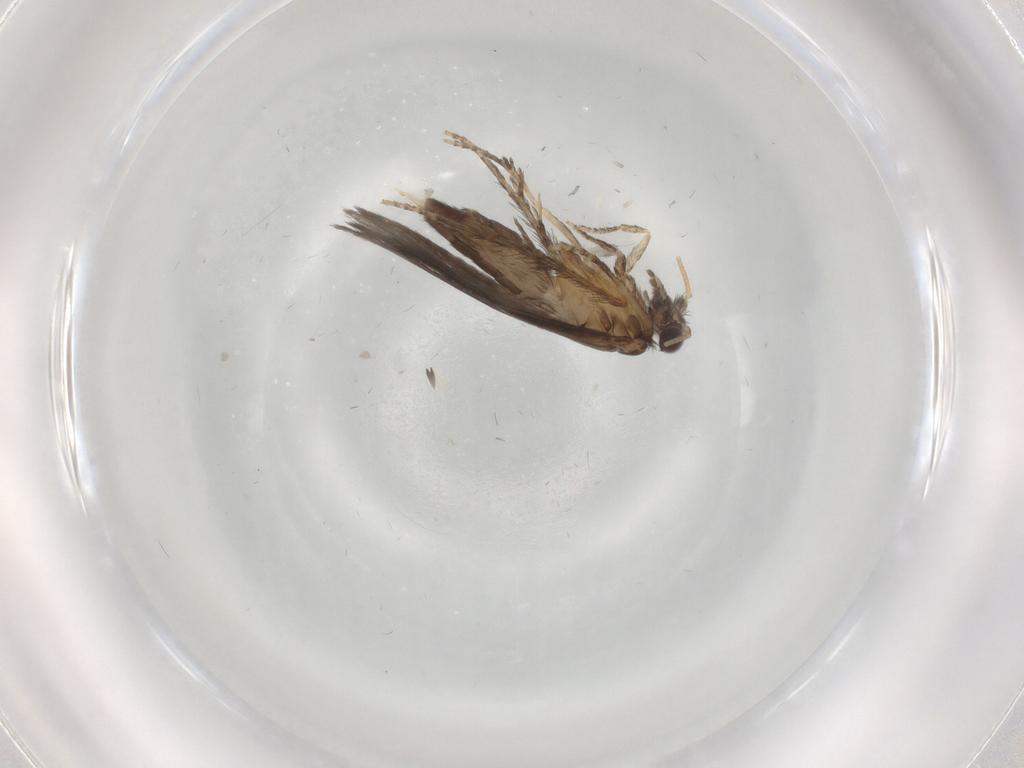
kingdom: Animalia
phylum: Arthropoda
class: Insecta
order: Trichoptera
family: Hydroptilidae
